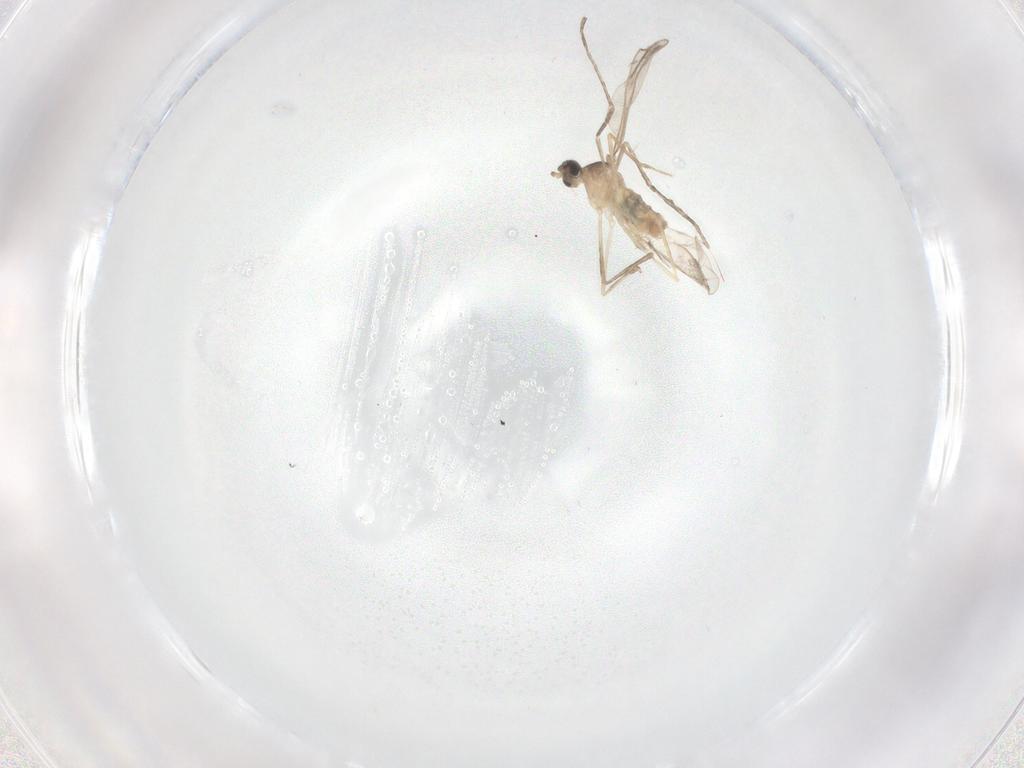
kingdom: Animalia
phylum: Arthropoda
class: Insecta
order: Diptera
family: Cecidomyiidae
